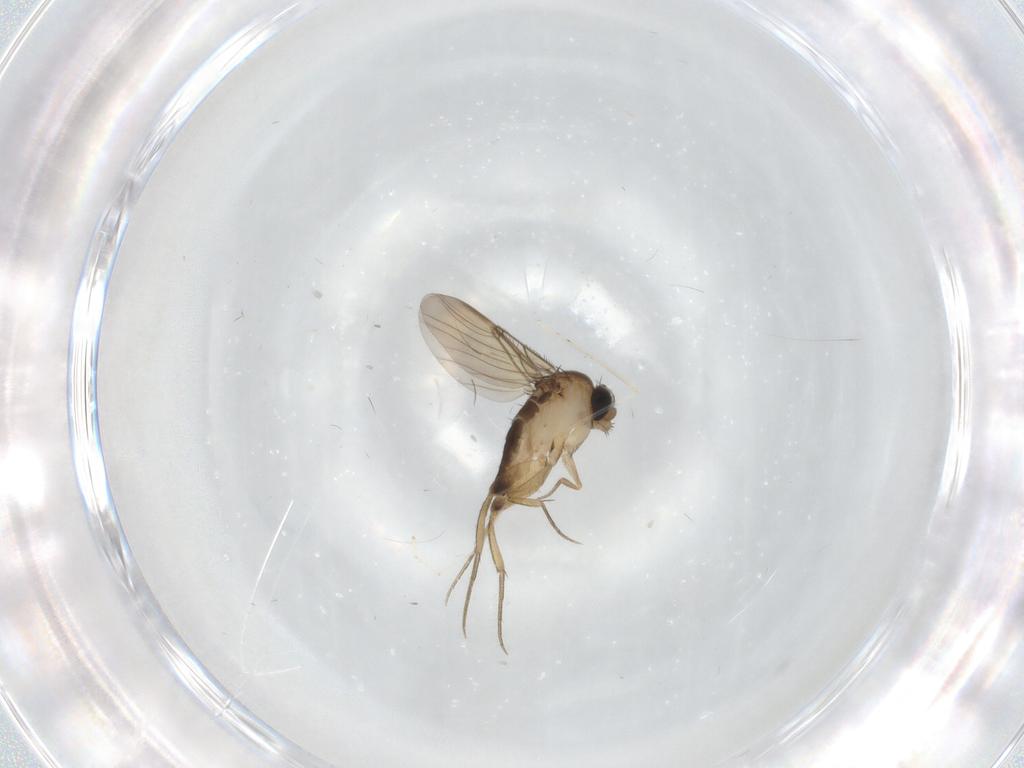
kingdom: Animalia
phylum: Arthropoda
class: Insecta
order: Diptera
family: Phoridae
